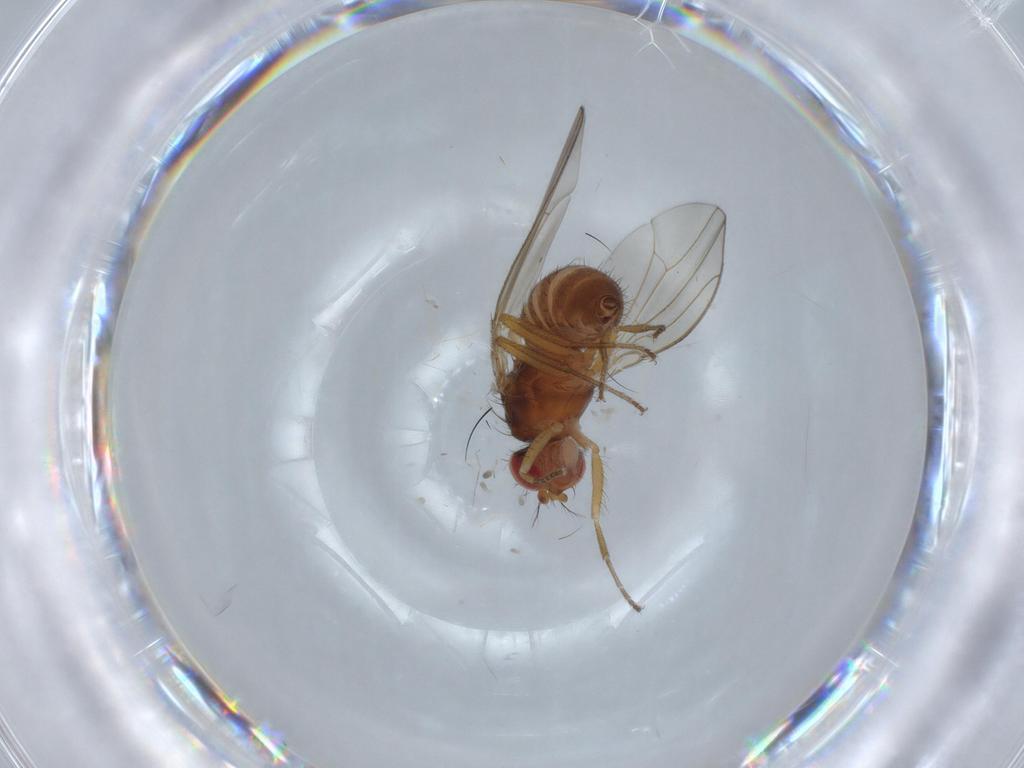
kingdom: Animalia
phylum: Arthropoda
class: Insecta
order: Diptera
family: Drosophilidae
